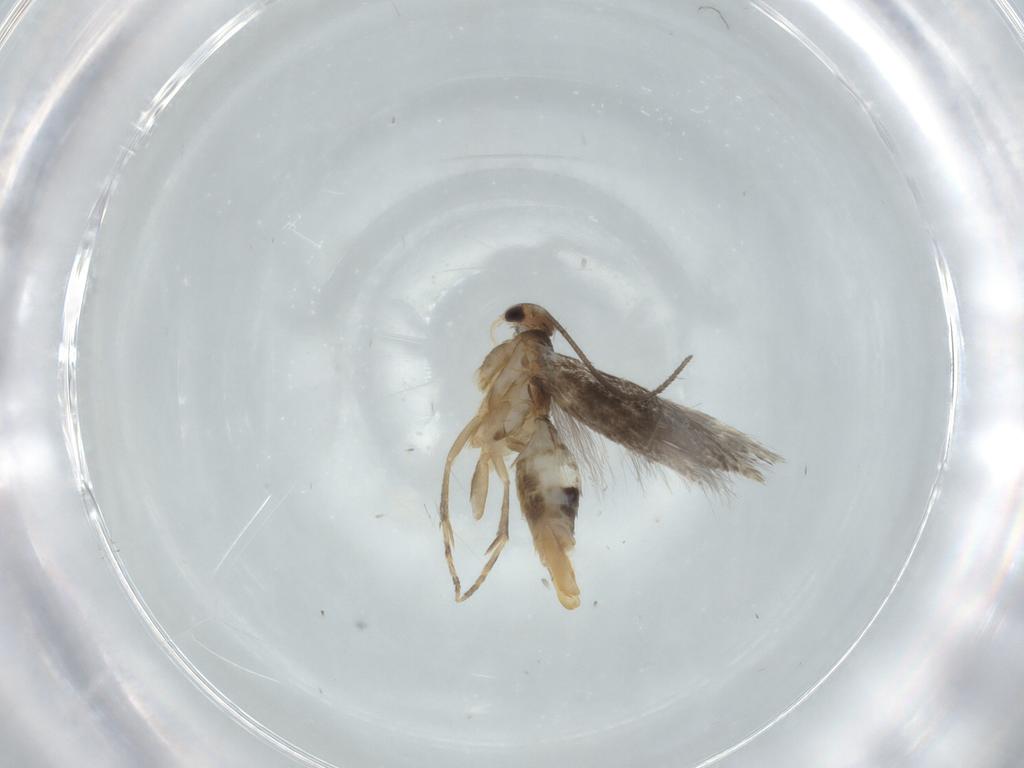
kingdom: Animalia
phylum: Arthropoda
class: Insecta
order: Lepidoptera
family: Elachistidae
